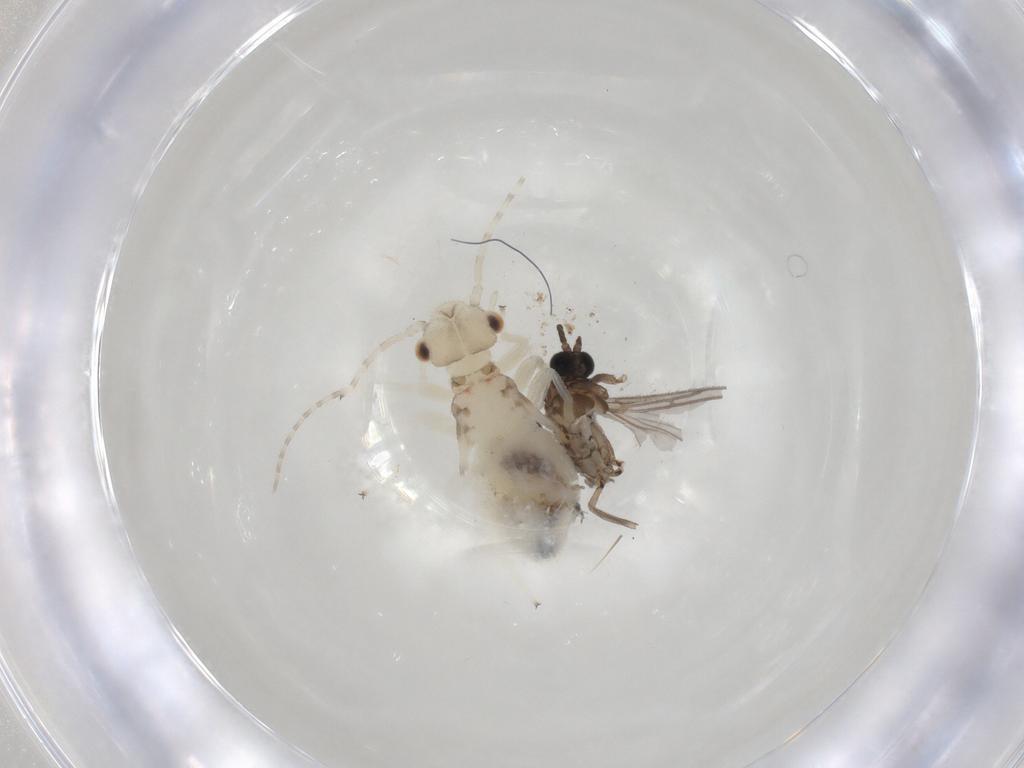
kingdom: Animalia
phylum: Arthropoda
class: Insecta
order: Psocodea
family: Amphipsocidae
